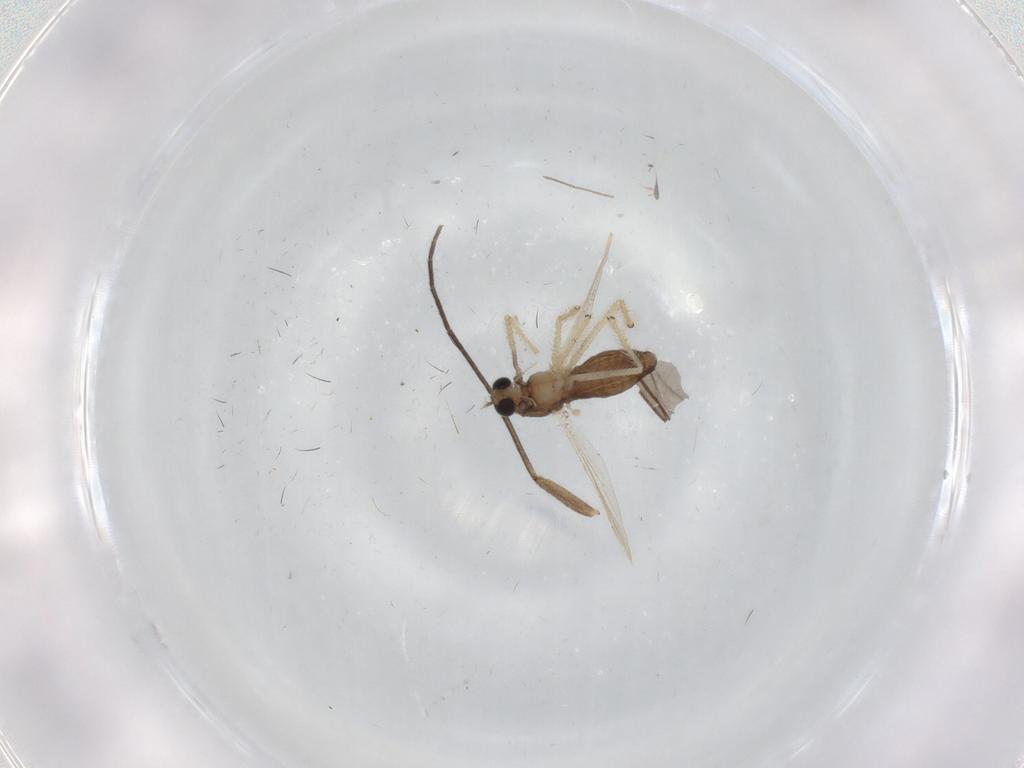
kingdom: Animalia
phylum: Arthropoda
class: Insecta
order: Diptera
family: Chironomidae
